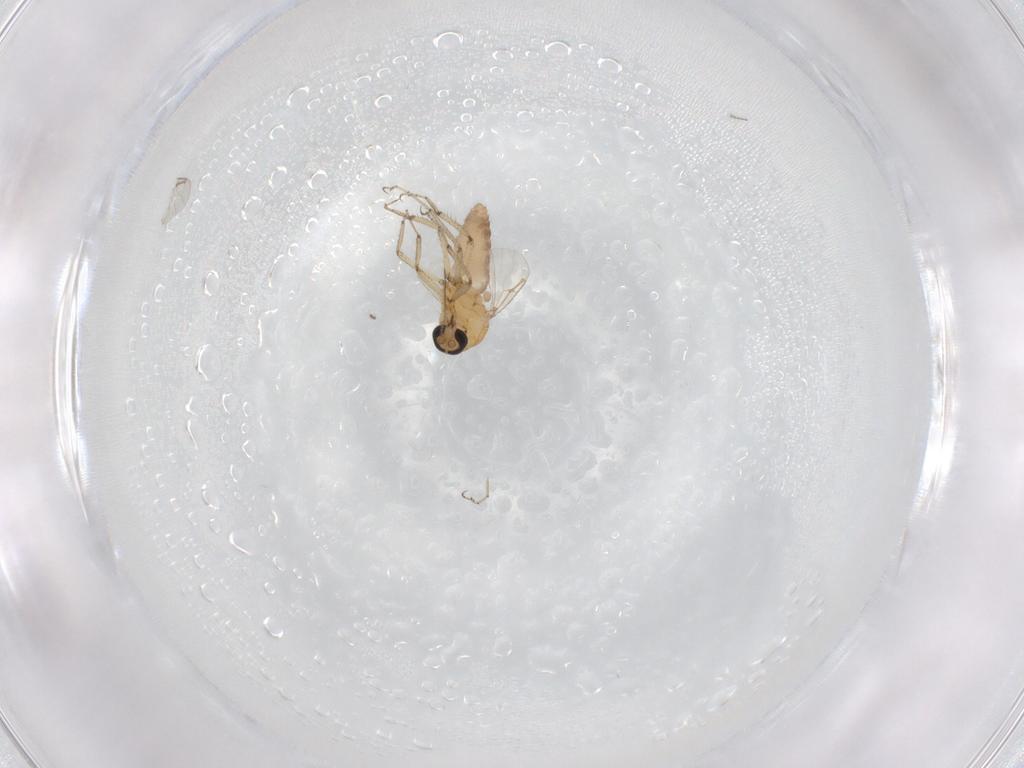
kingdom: Animalia
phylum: Arthropoda
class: Insecta
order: Diptera
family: Ceratopogonidae
